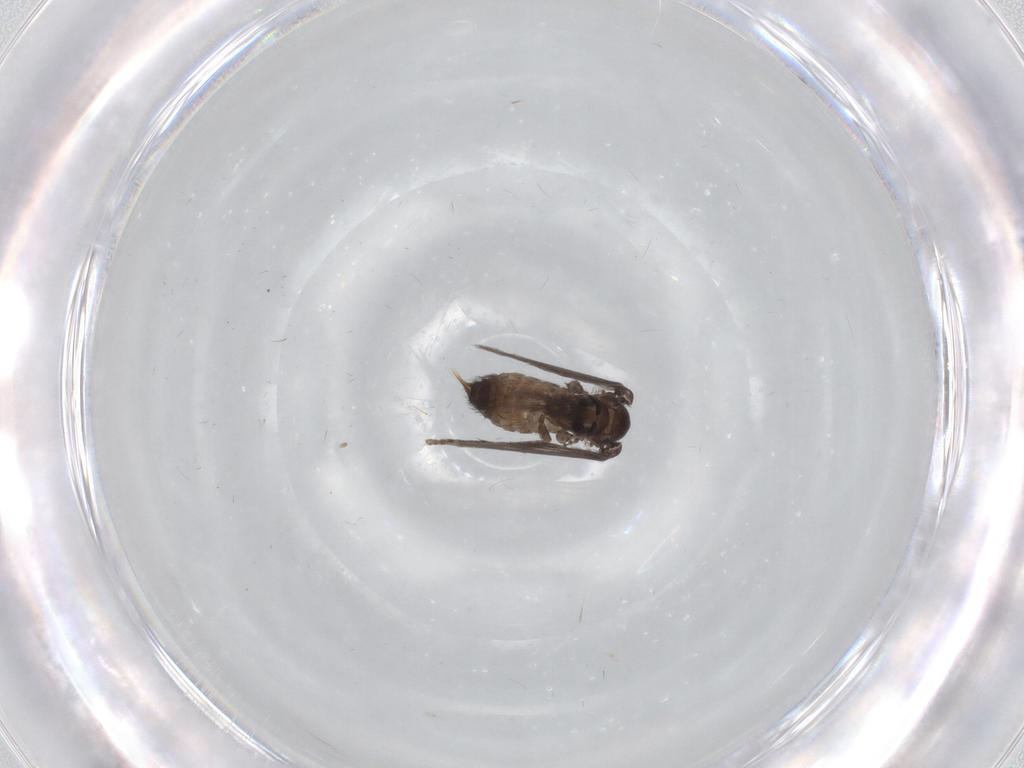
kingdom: Animalia
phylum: Arthropoda
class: Insecta
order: Diptera
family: Psychodidae
